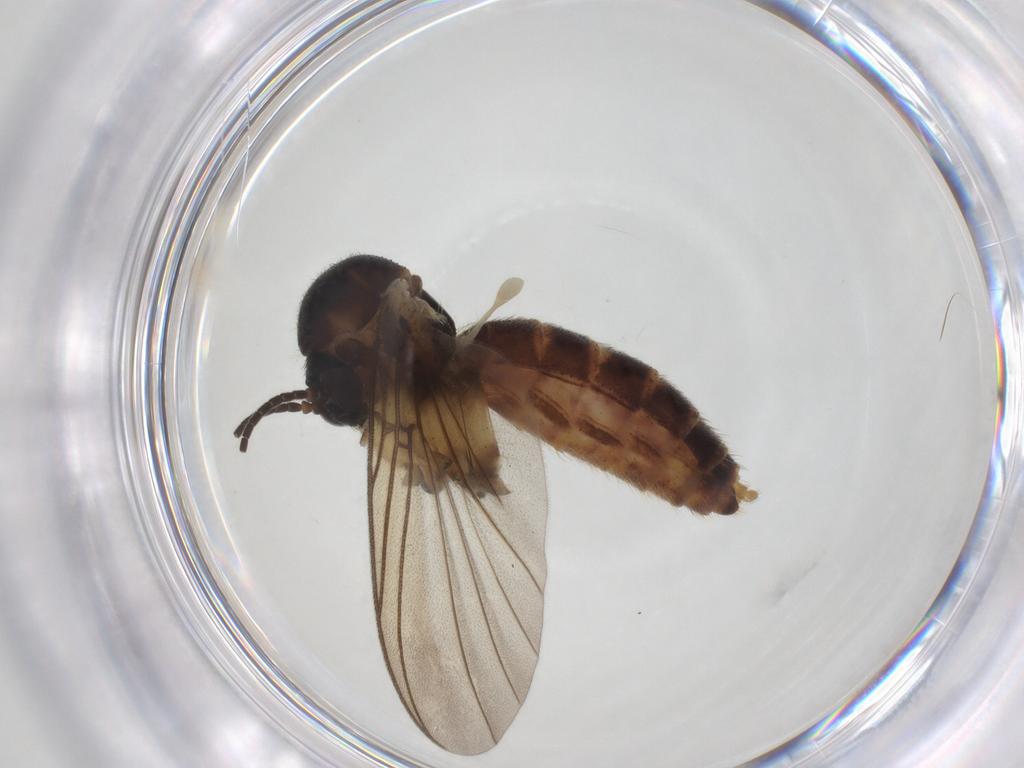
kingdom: Animalia
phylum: Arthropoda
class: Insecta
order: Diptera
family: Mycetophilidae
